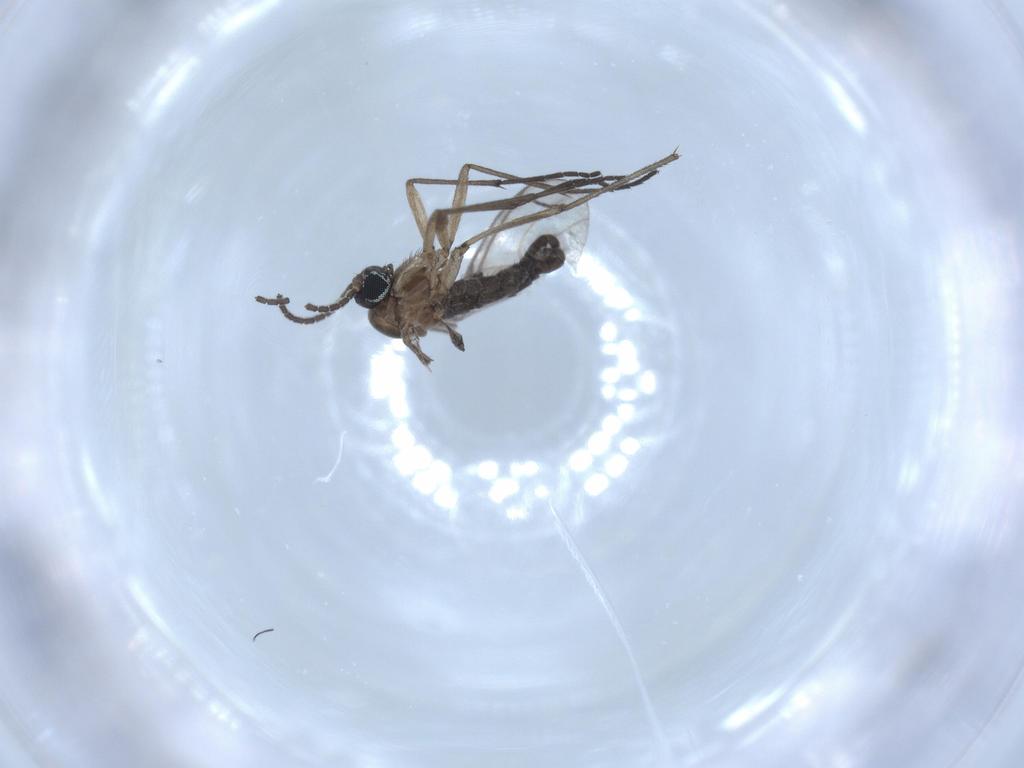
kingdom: Animalia
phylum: Arthropoda
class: Insecta
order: Diptera
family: Sciaridae
